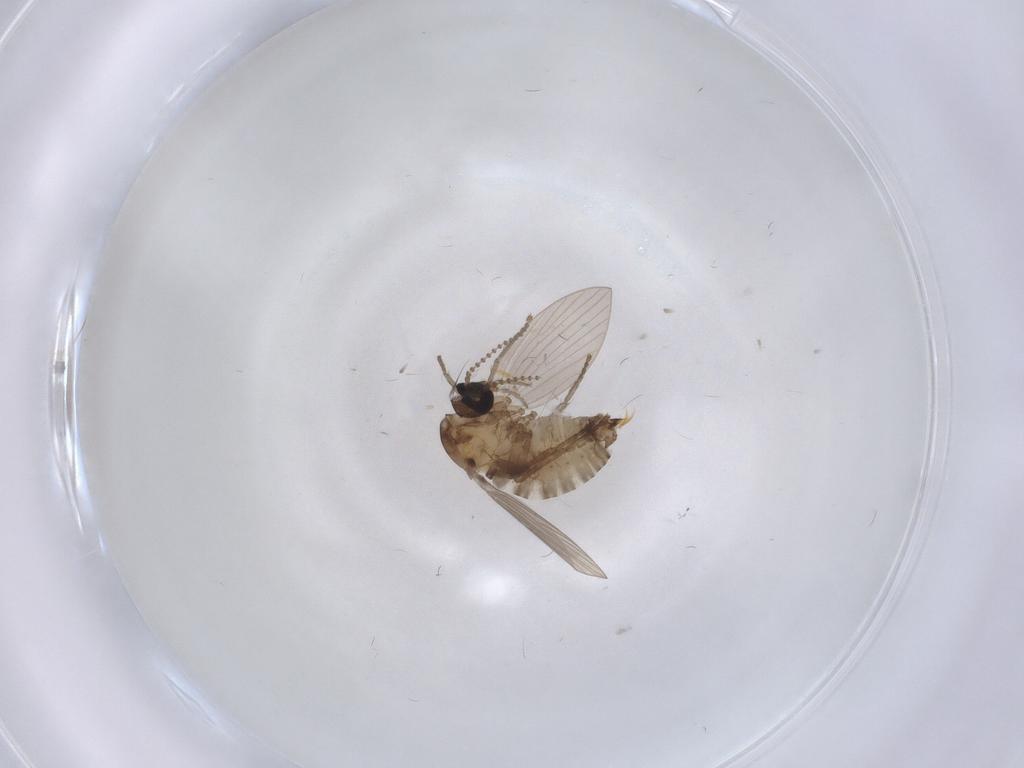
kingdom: Animalia
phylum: Arthropoda
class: Insecta
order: Diptera
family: Psychodidae
